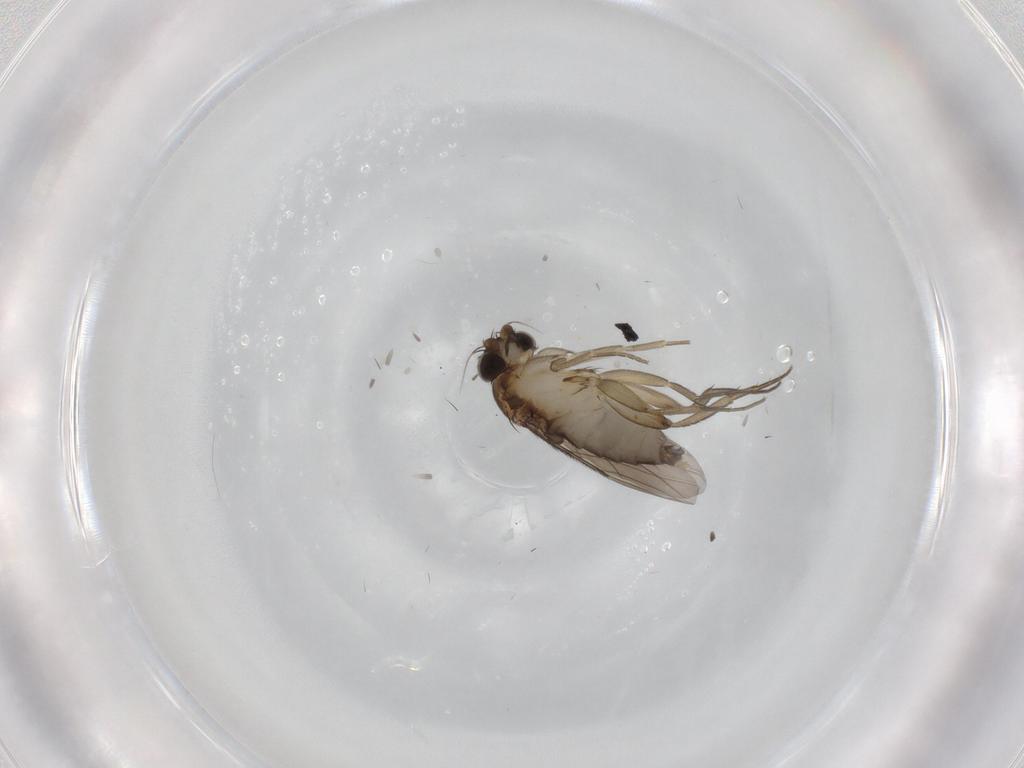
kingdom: Animalia
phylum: Arthropoda
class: Insecta
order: Diptera
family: Phoridae
